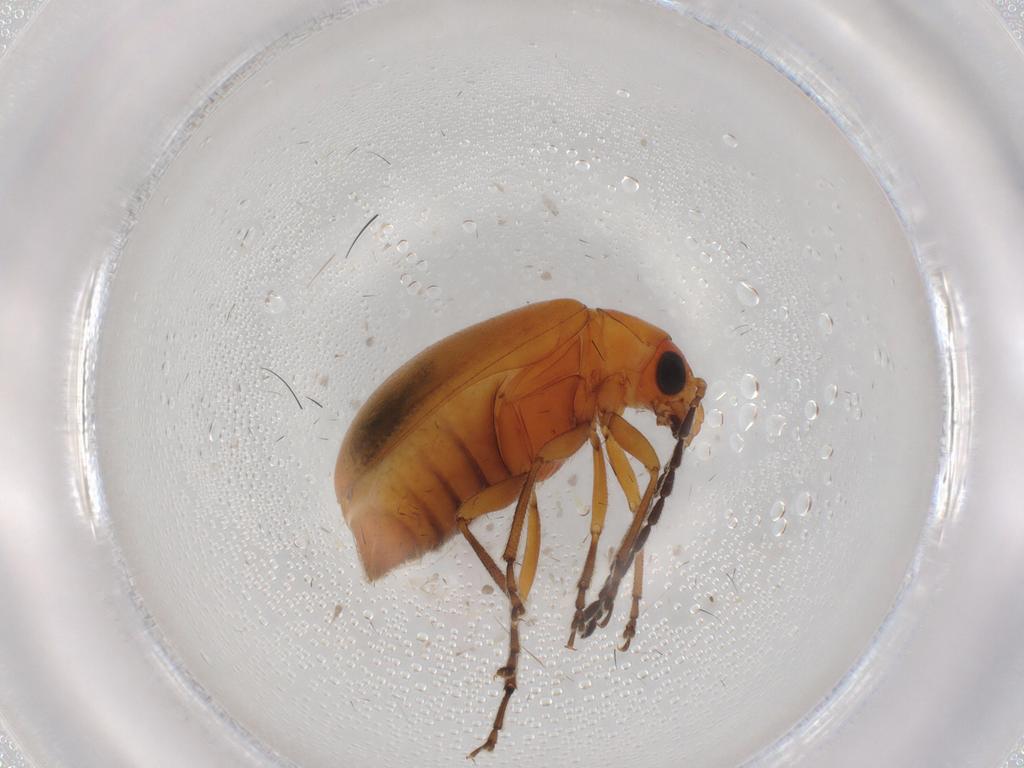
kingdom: Animalia
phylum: Arthropoda
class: Insecta
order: Coleoptera
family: Chrysomelidae
